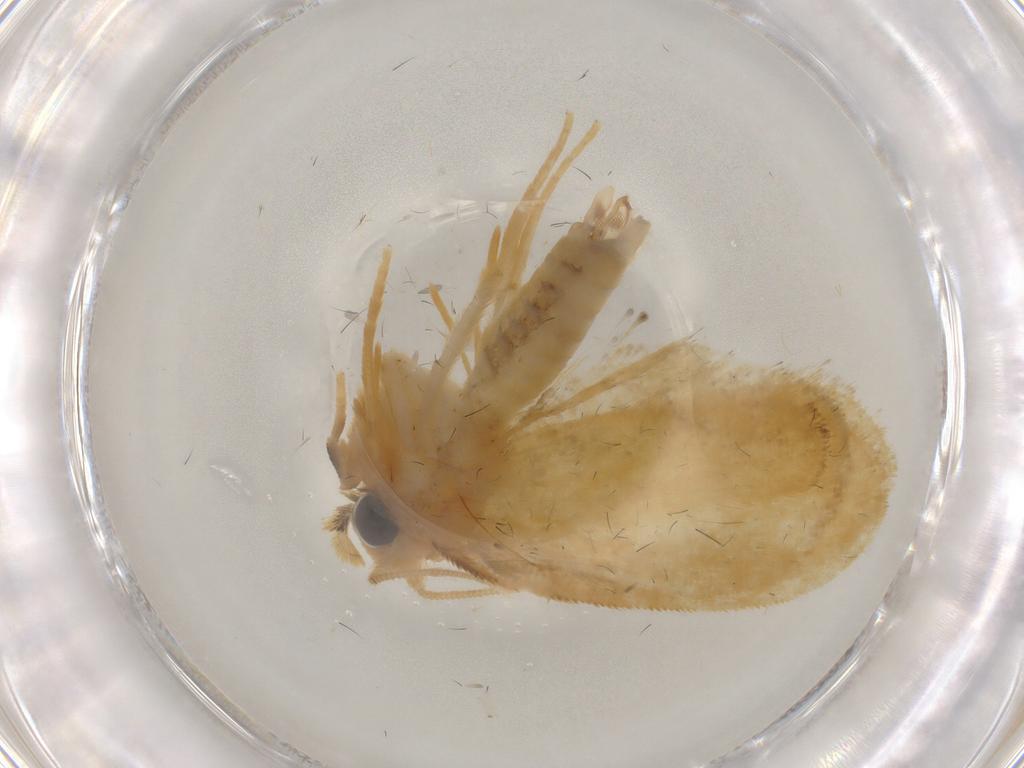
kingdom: Animalia
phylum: Arthropoda
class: Insecta
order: Lepidoptera
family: Psychidae
